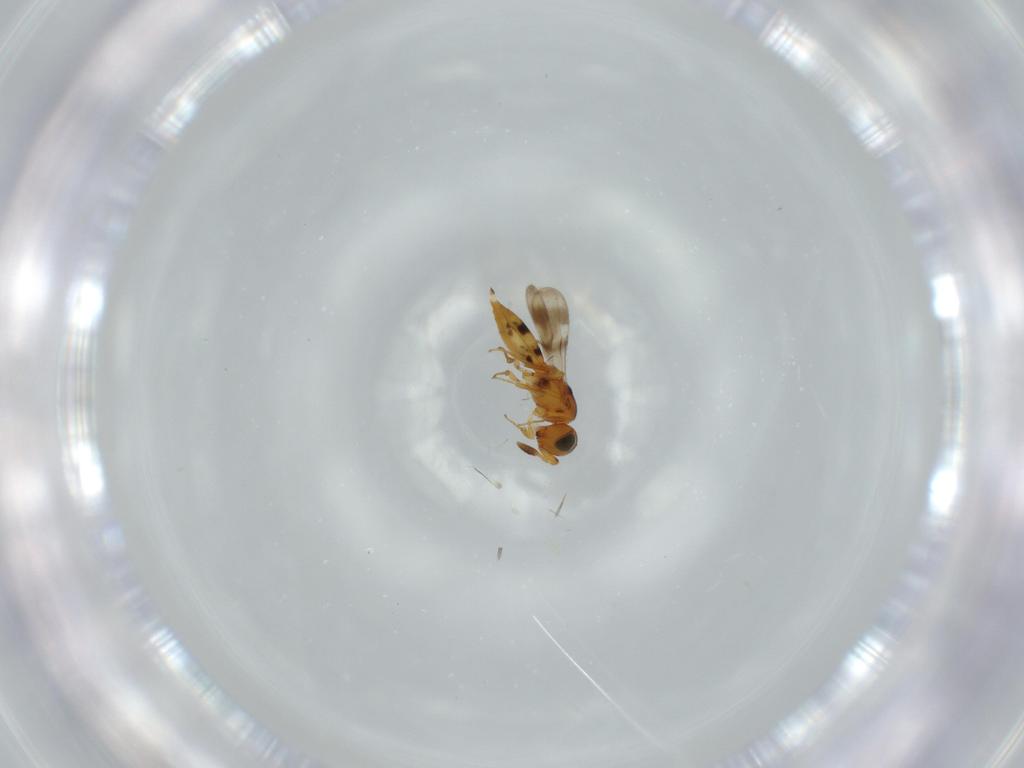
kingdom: Animalia
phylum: Arthropoda
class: Insecta
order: Hymenoptera
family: Scelionidae
